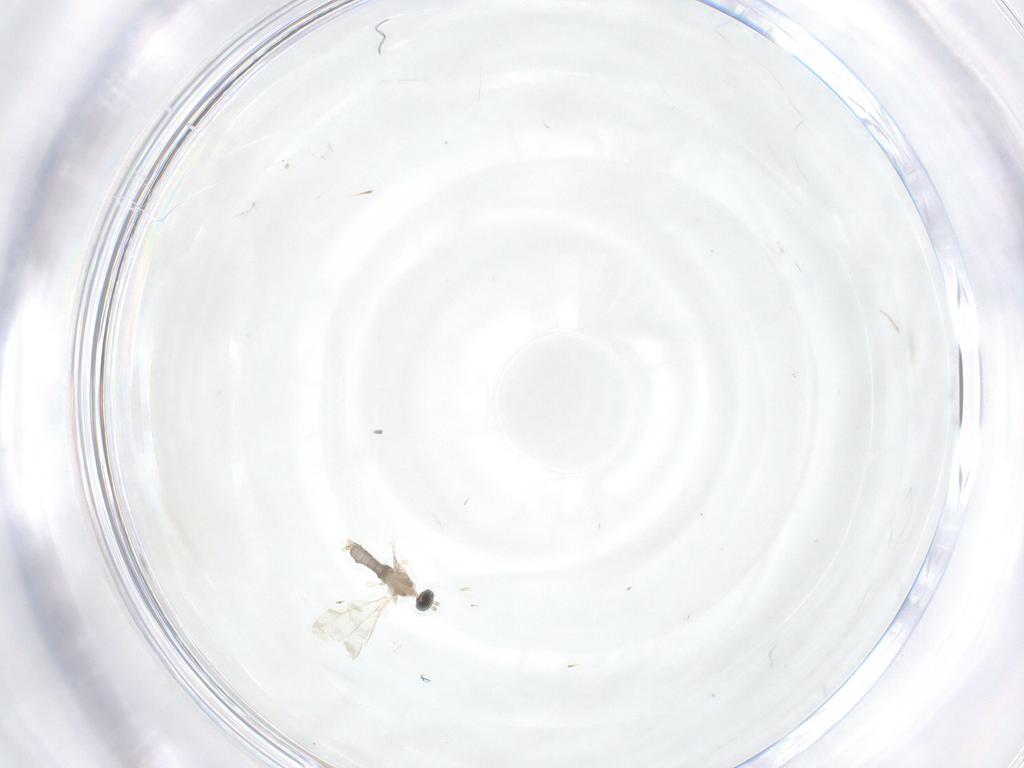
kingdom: Animalia
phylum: Arthropoda
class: Insecta
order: Diptera
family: Cecidomyiidae
